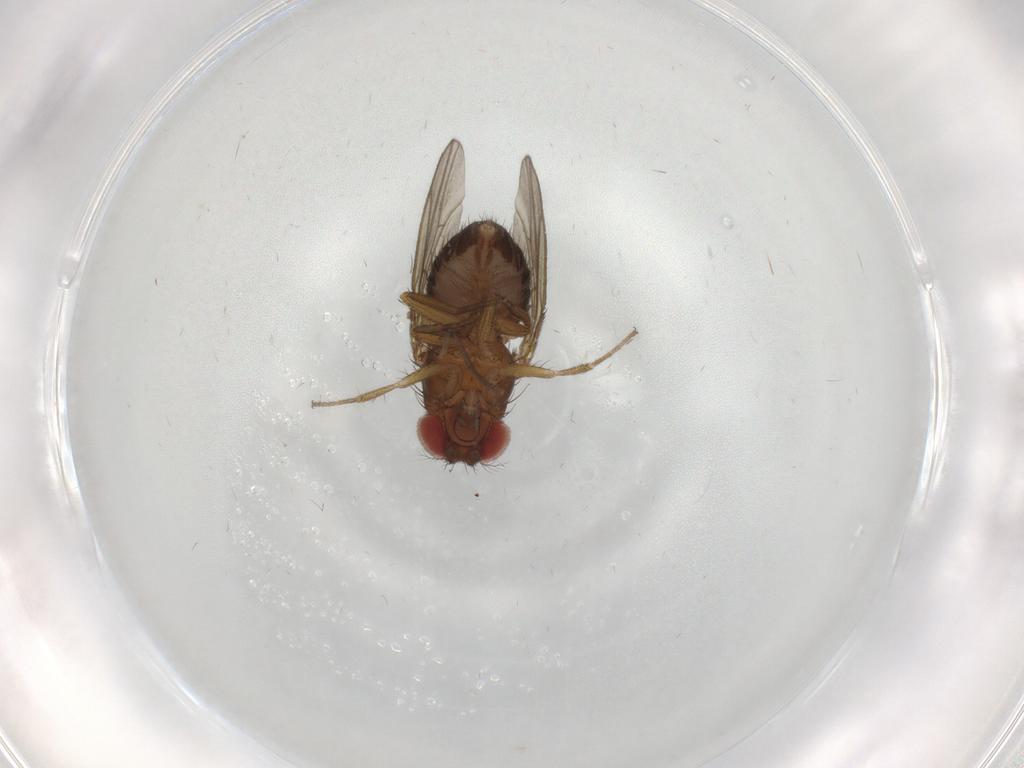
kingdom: Animalia
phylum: Arthropoda
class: Insecta
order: Diptera
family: Drosophilidae
